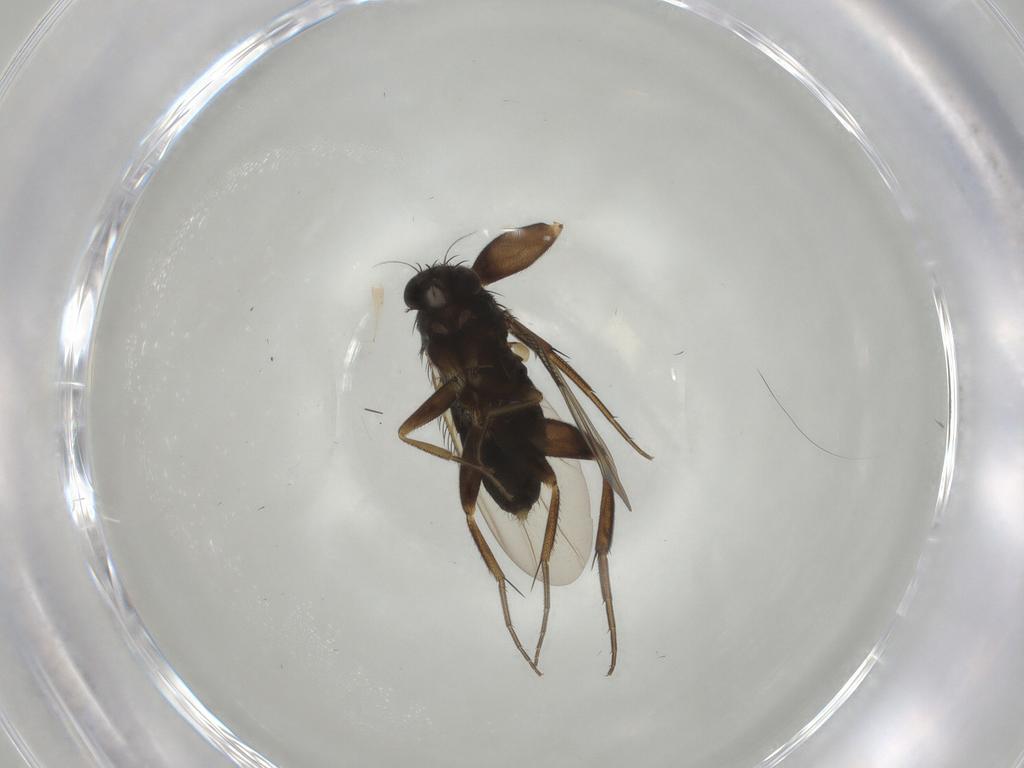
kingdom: Animalia
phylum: Arthropoda
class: Insecta
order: Diptera
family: Phoridae
